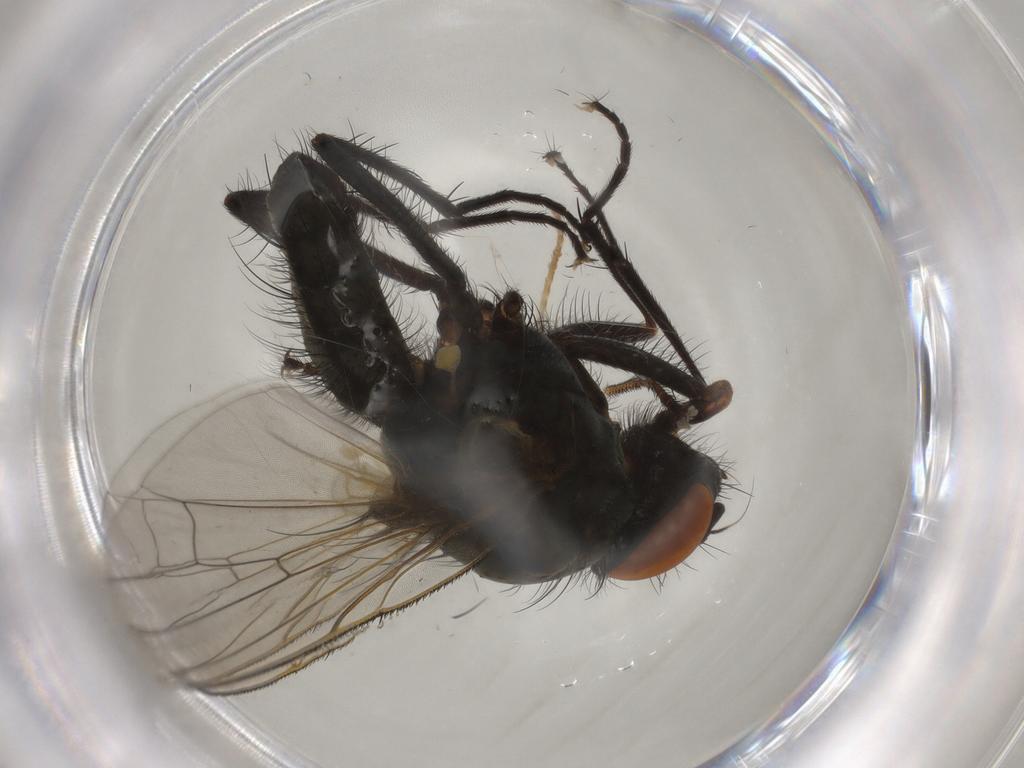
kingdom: Animalia
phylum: Arthropoda
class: Insecta
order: Diptera
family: Psychodidae
